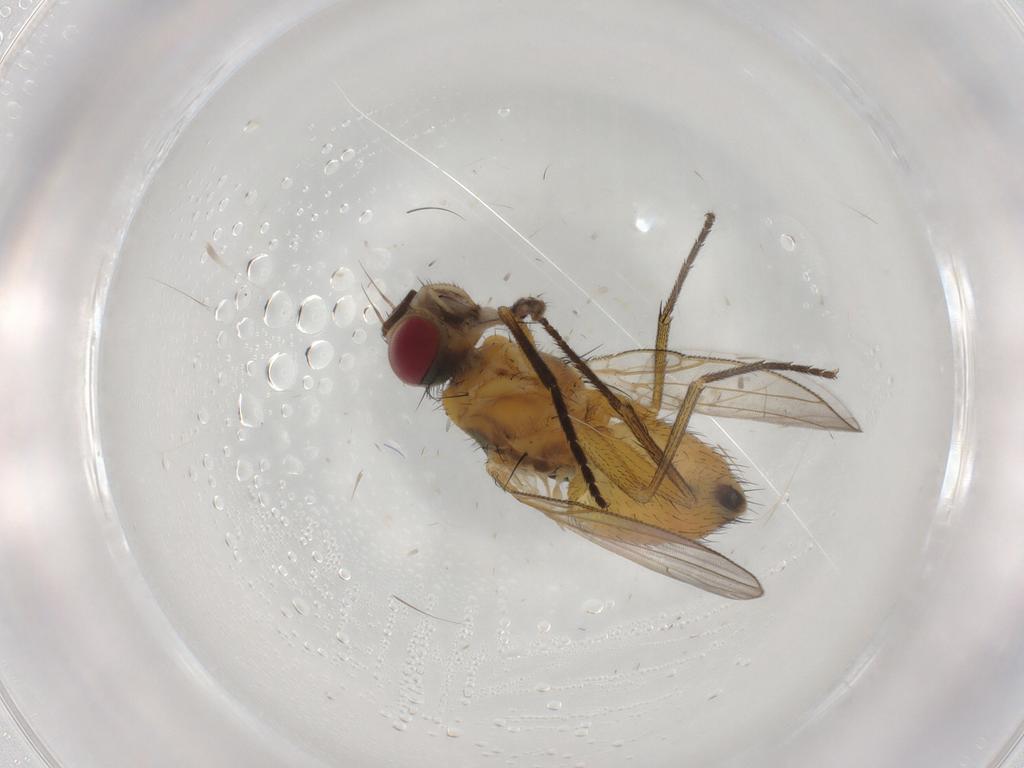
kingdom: Animalia
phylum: Arthropoda
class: Insecta
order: Diptera
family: Muscidae
